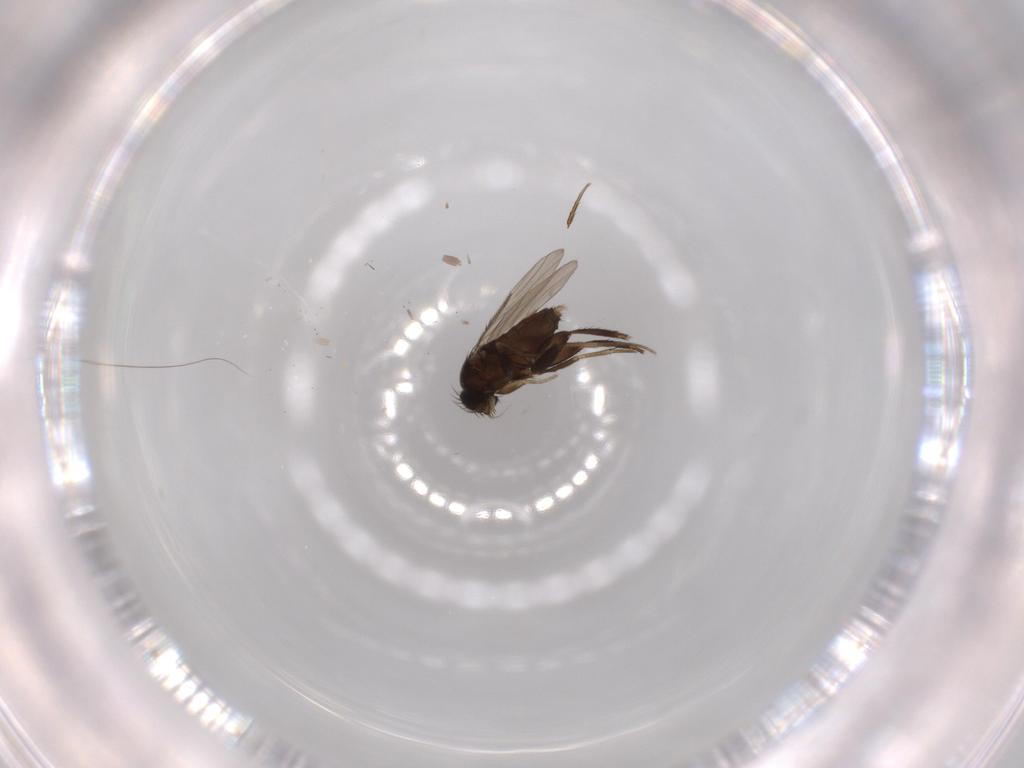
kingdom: Animalia
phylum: Arthropoda
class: Insecta
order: Diptera
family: Phoridae
